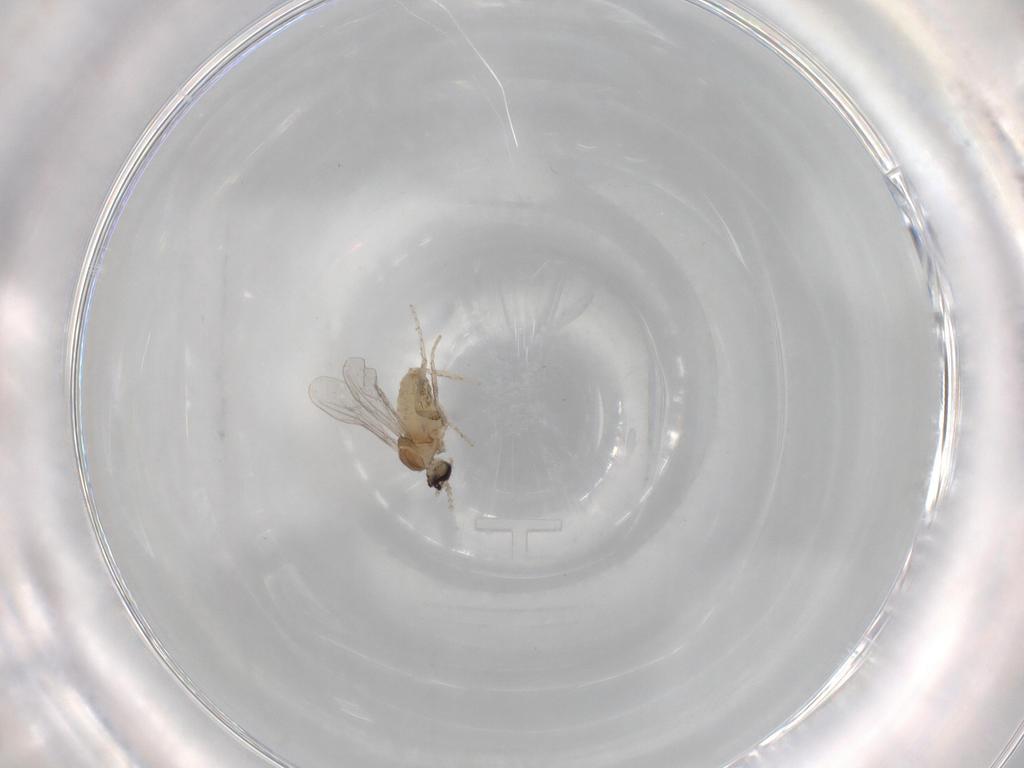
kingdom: Animalia
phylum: Arthropoda
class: Insecta
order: Diptera
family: Cecidomyiidae
